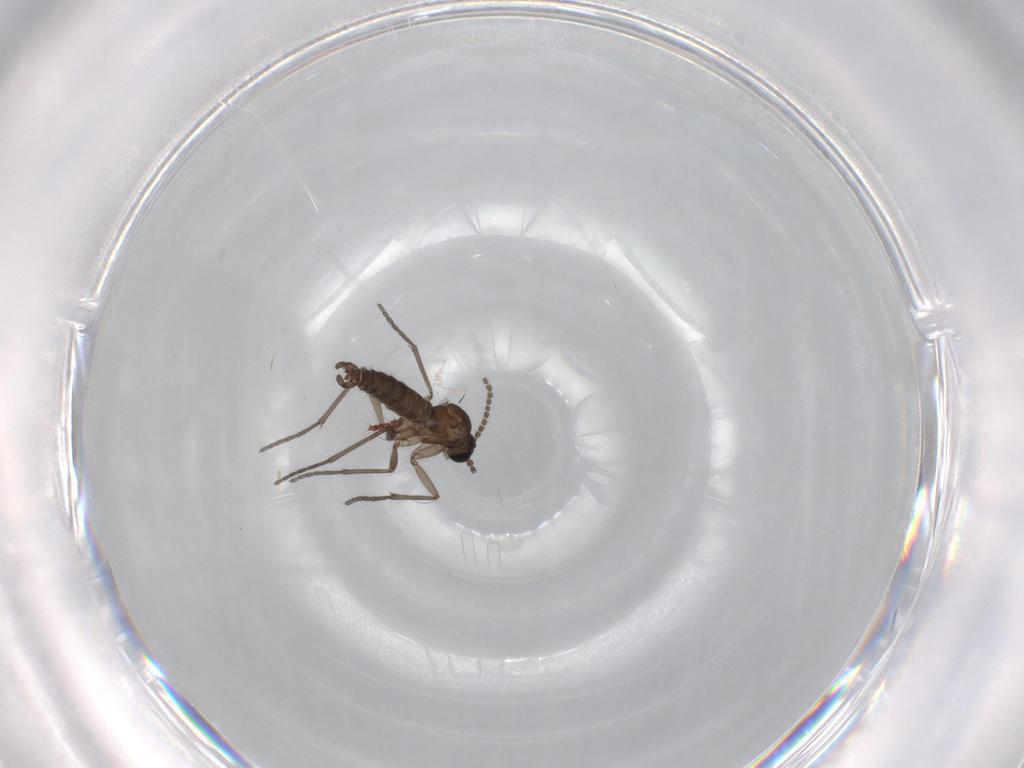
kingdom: Animalia
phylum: Arthropoda
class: Insecta
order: Diptera
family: Sciaridae
